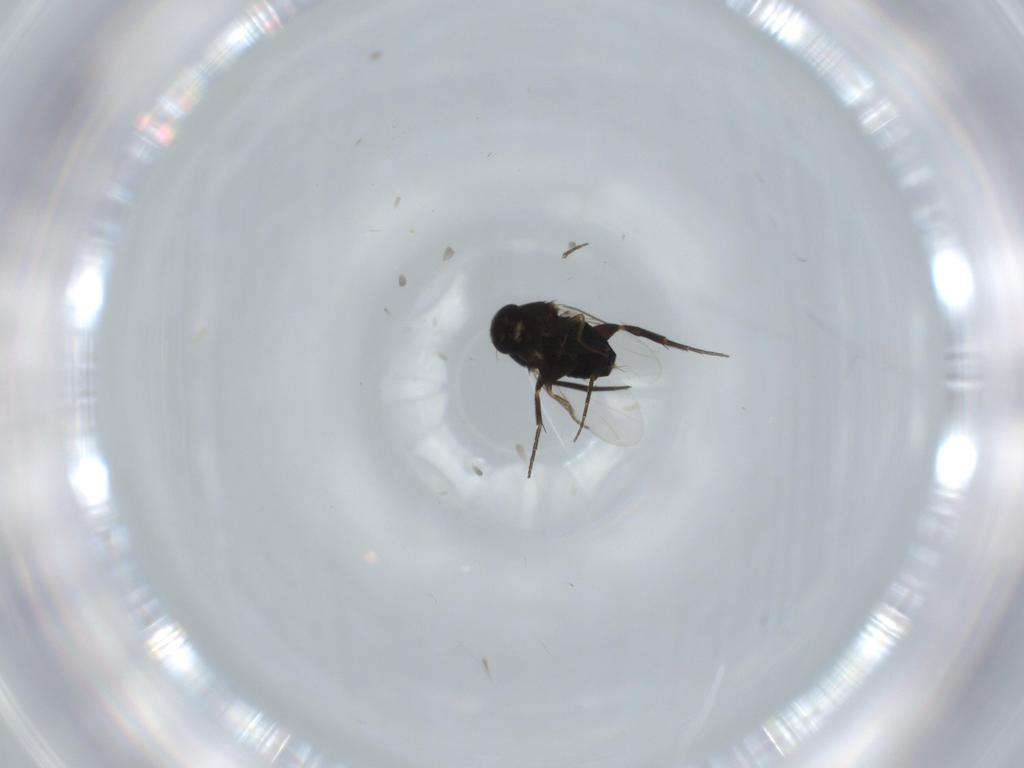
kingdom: Animalia
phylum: Arthropoda
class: Insecta
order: Diptera
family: Phoridae
